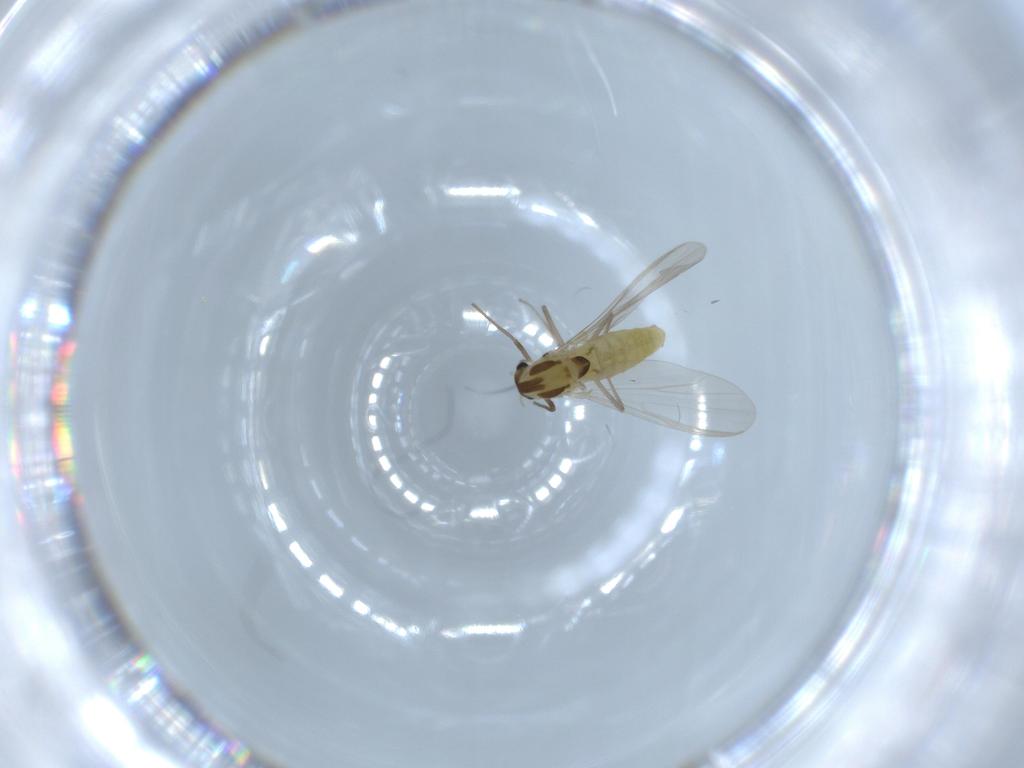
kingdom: Animalia
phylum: Arthropoda
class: Insecta
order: Diptera
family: Chironomidae
